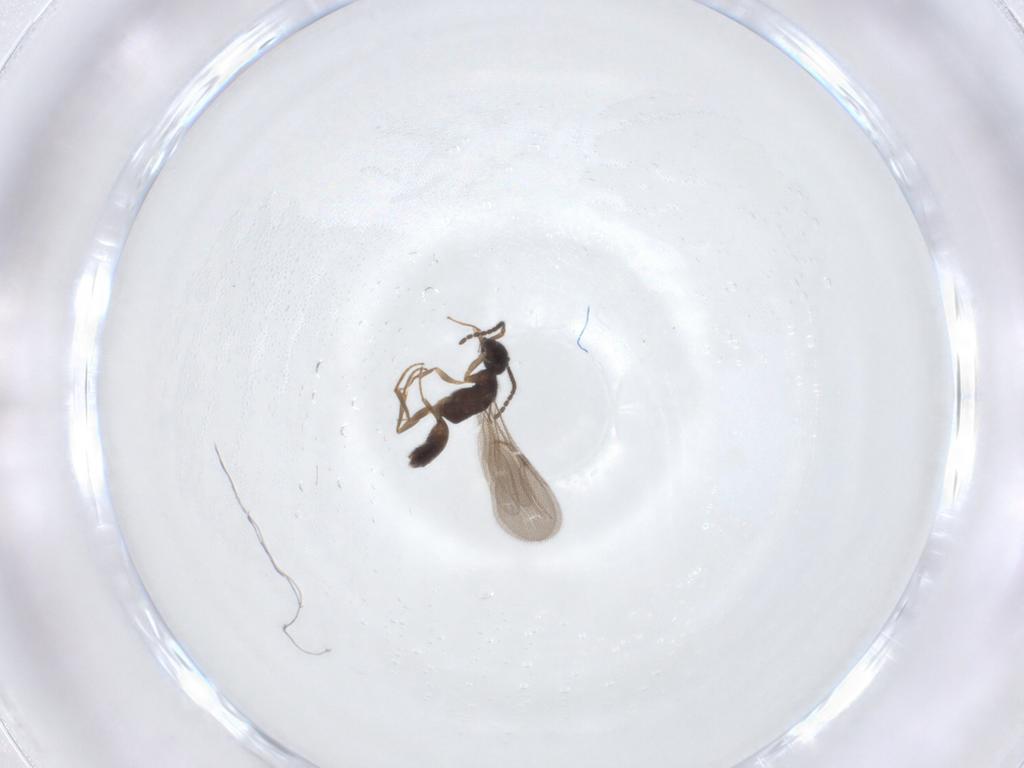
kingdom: Animalia
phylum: Arthropoda
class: Insecta
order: Hymenoptera
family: Bethylidae
